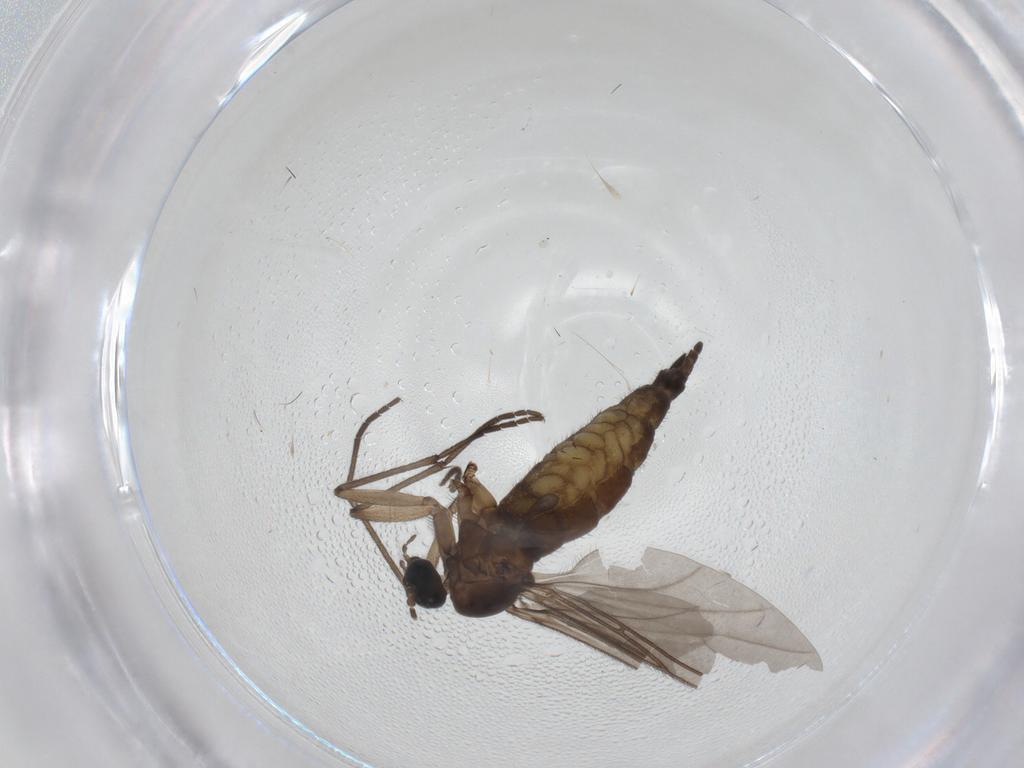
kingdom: Animalia
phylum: Arthropoda
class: Insecta
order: Diptera
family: Sciaridae
